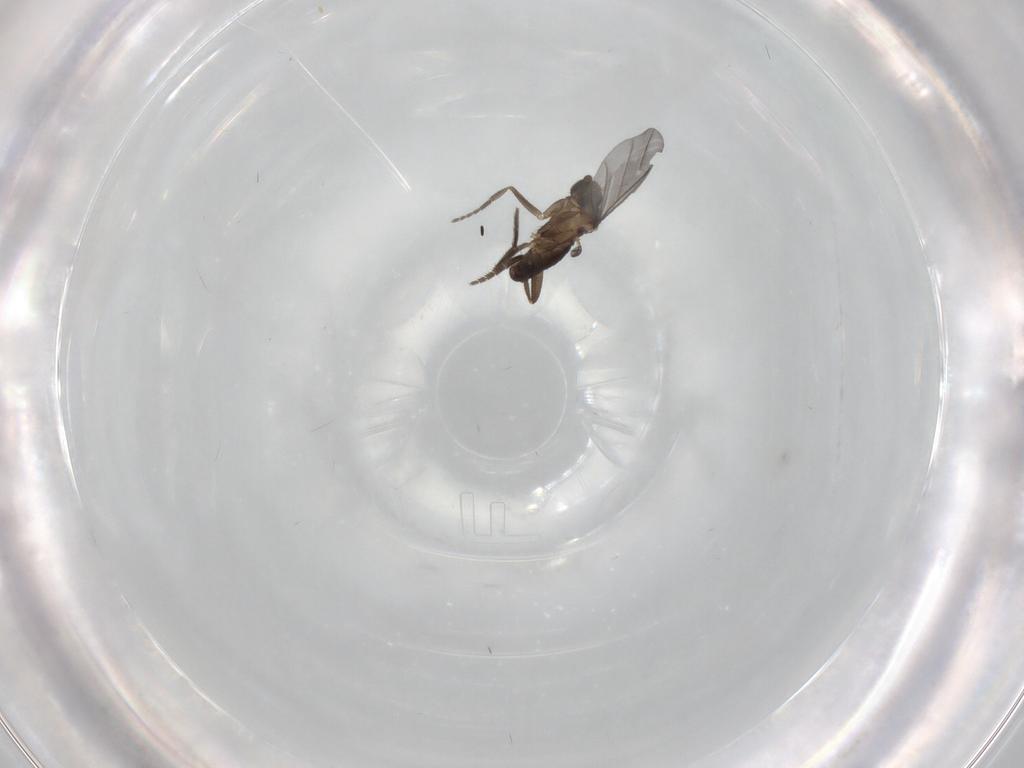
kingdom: Animalia
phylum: Arthropoda
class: Insecta
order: Diptera
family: Phoridae
